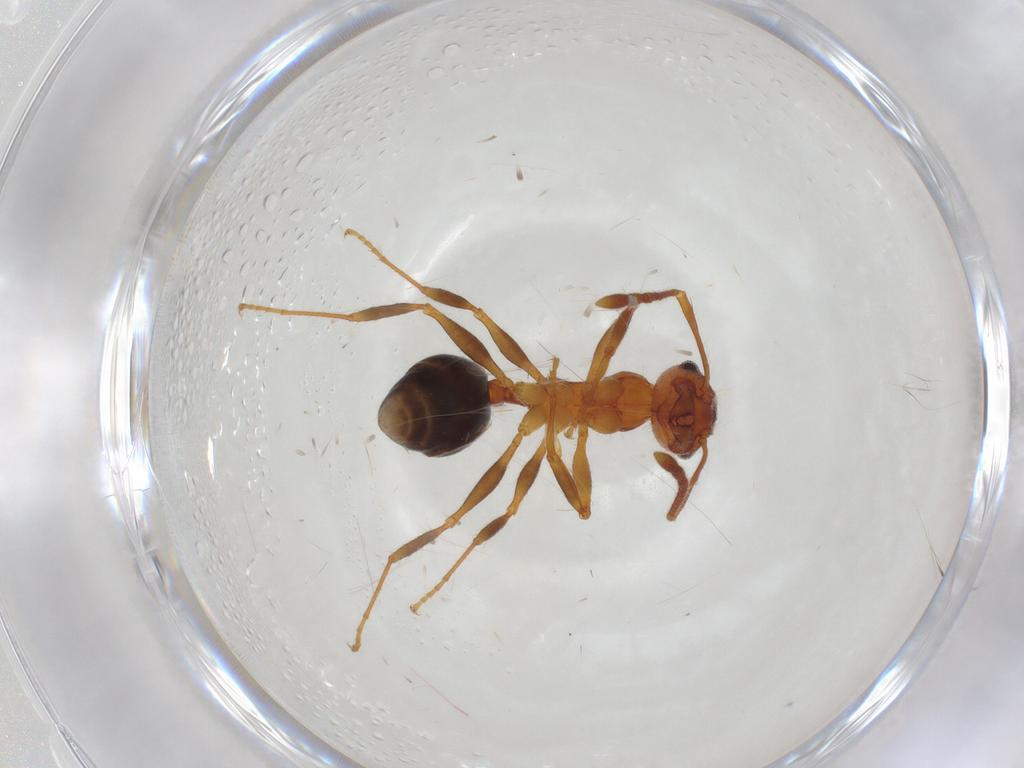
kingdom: Animalia
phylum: Arthropoda
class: Insecta
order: Hymenoptera
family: Formicidae
